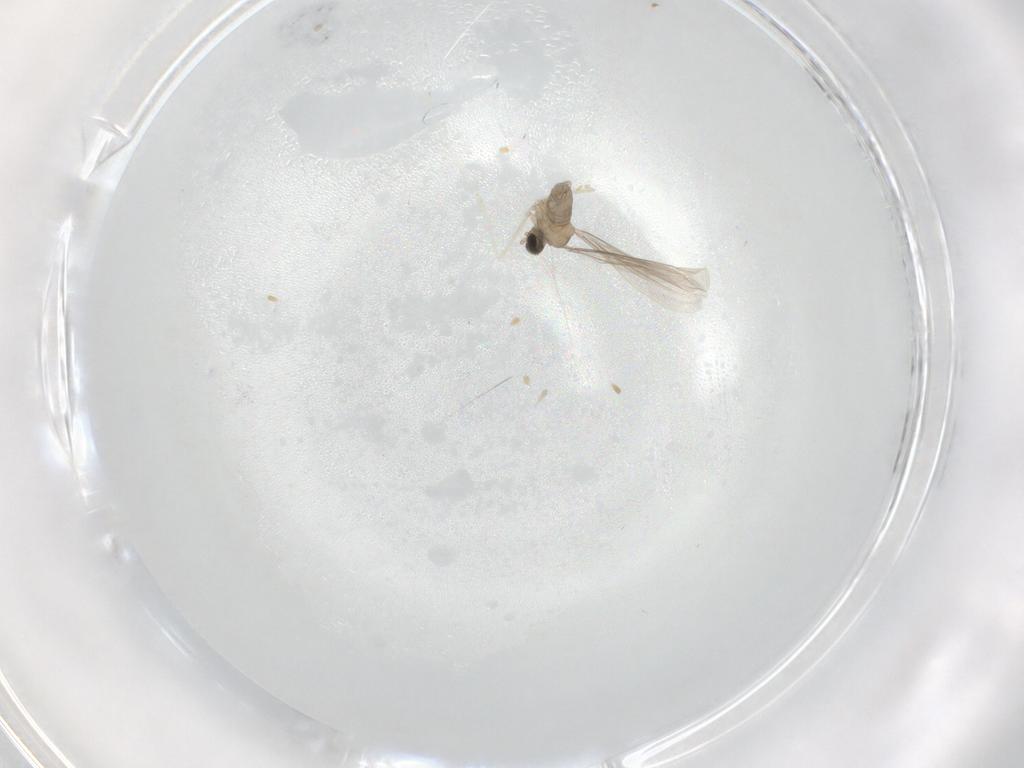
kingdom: Animalia
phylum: Arthropoda
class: Insecta
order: Diptera
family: Cecidomyiidae
